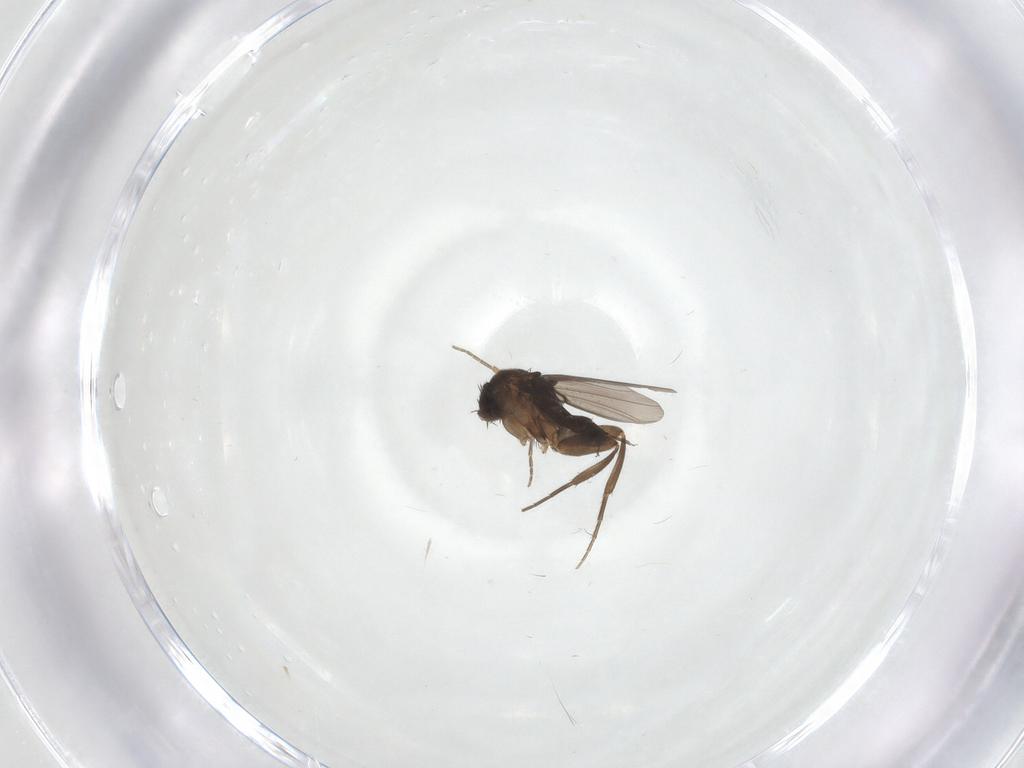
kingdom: Animalia
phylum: Arthropoda
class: Insecta
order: Diptera
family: Phoridae
